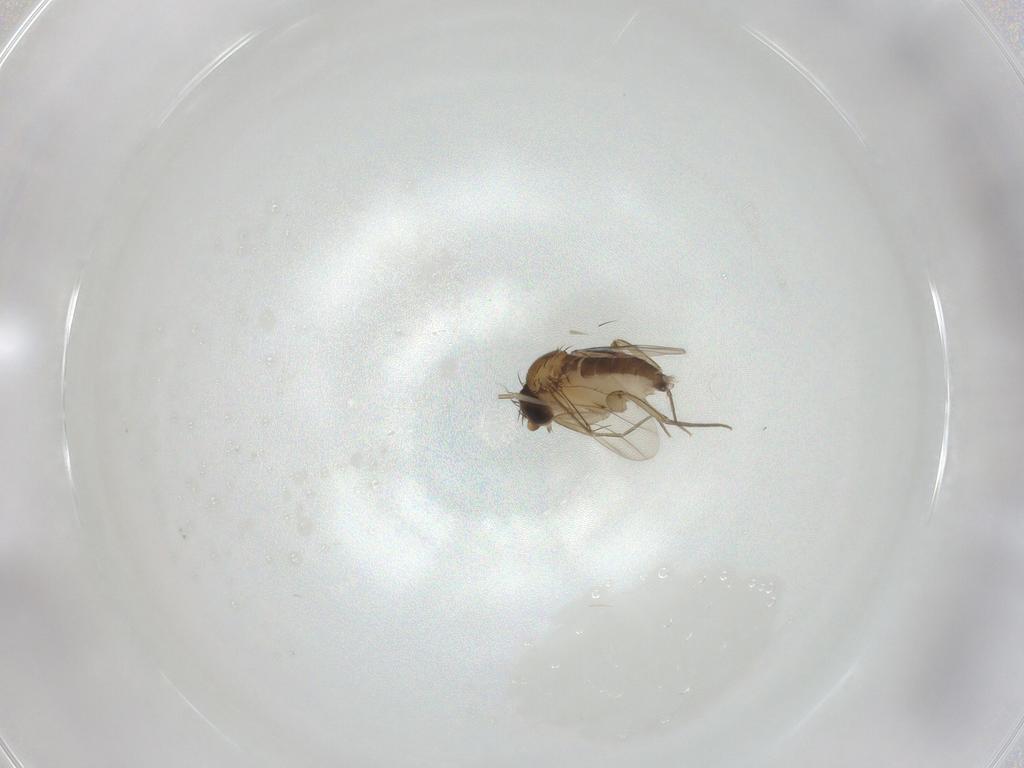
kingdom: Animalia
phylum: Arthropoda
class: Insecta
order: Diptera
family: Phoridae
